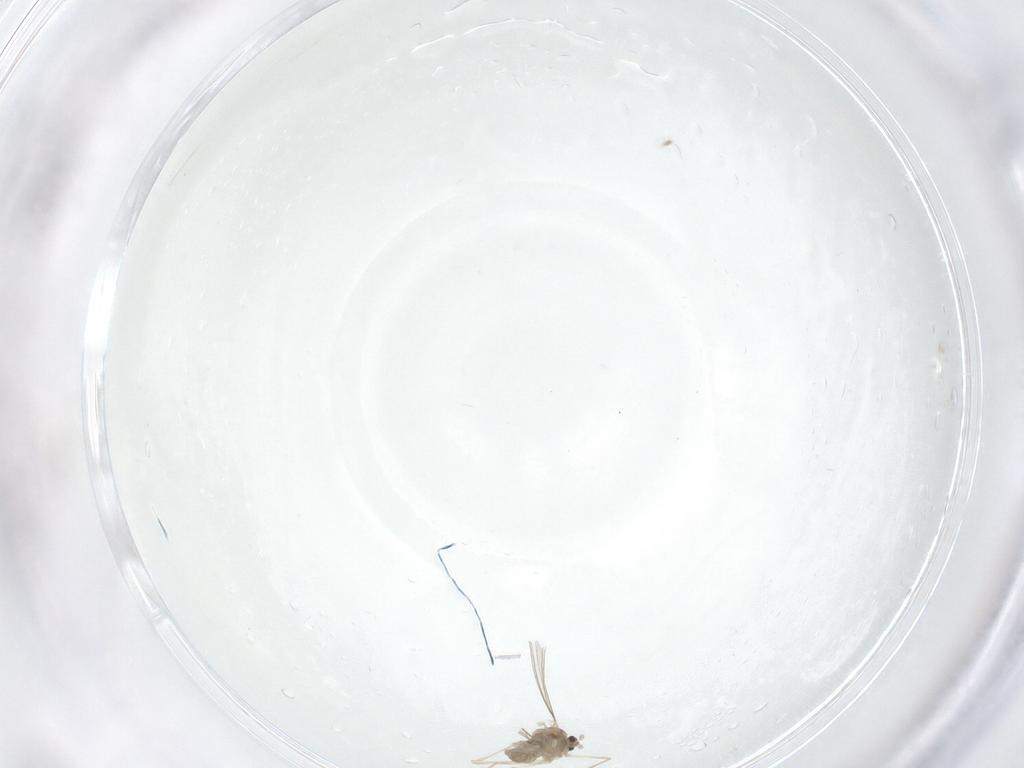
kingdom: Animalia
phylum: Arthropoda
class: Insecta
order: Diptera
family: Cecidomyiidae
